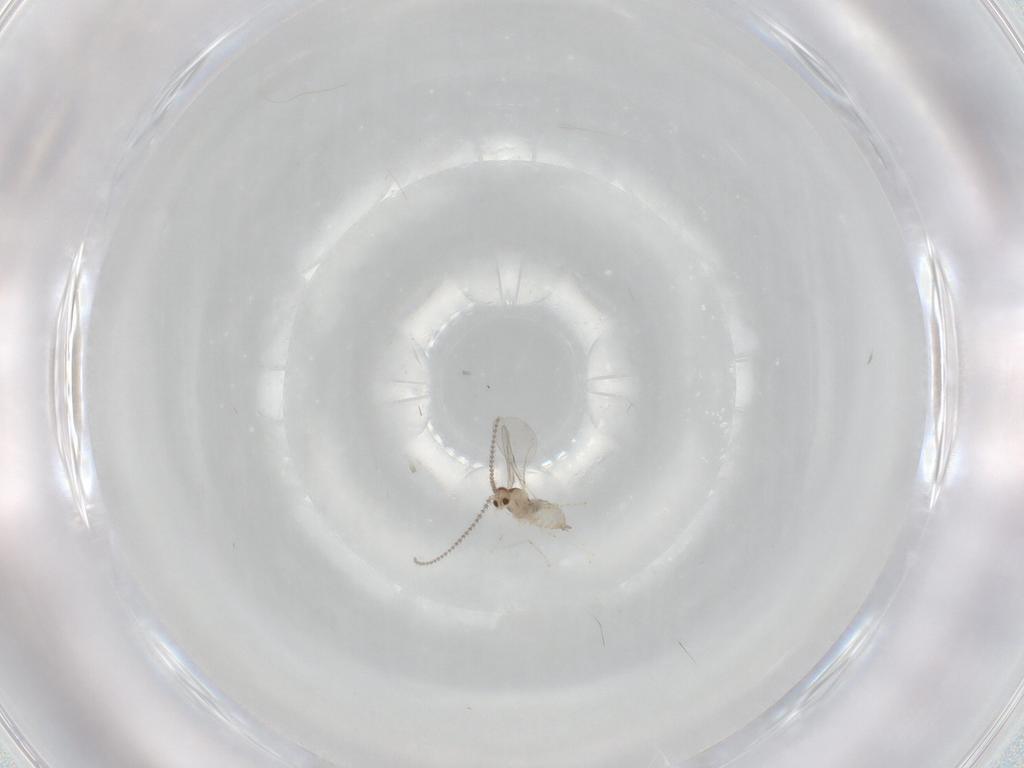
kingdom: Animalia
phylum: Arthropoda
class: Insecta
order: Diptera
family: Cecidomyiidae
